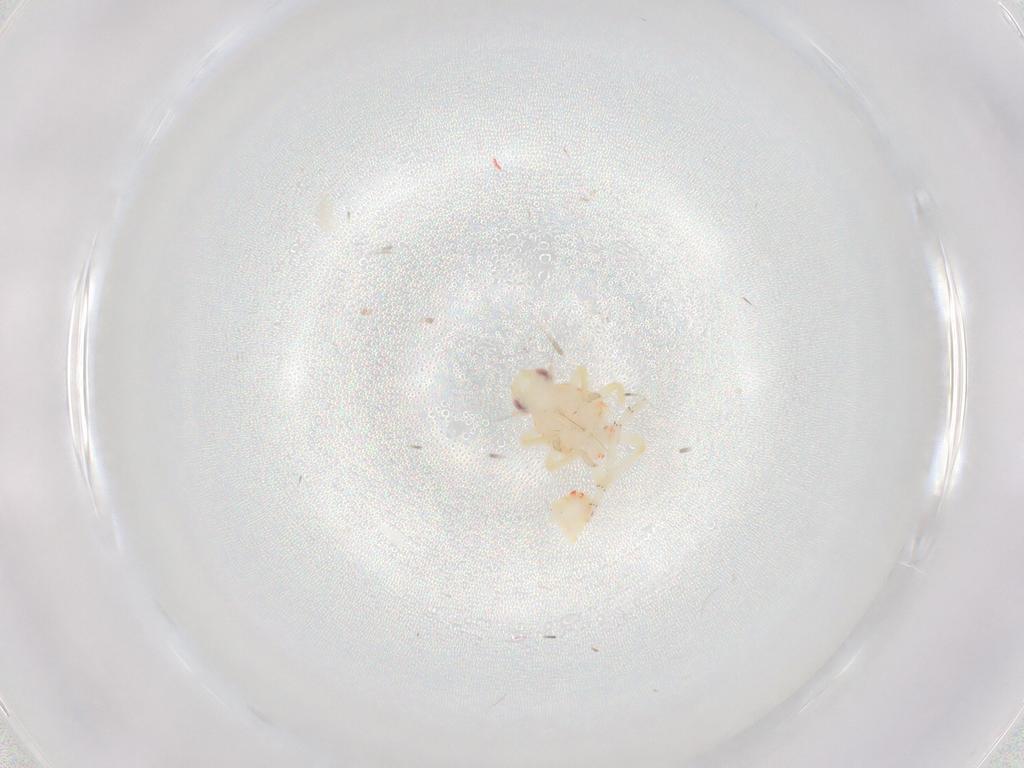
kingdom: Animalia
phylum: Arthropoda
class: Insecta
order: Hemiptera
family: Tropiduchidae
